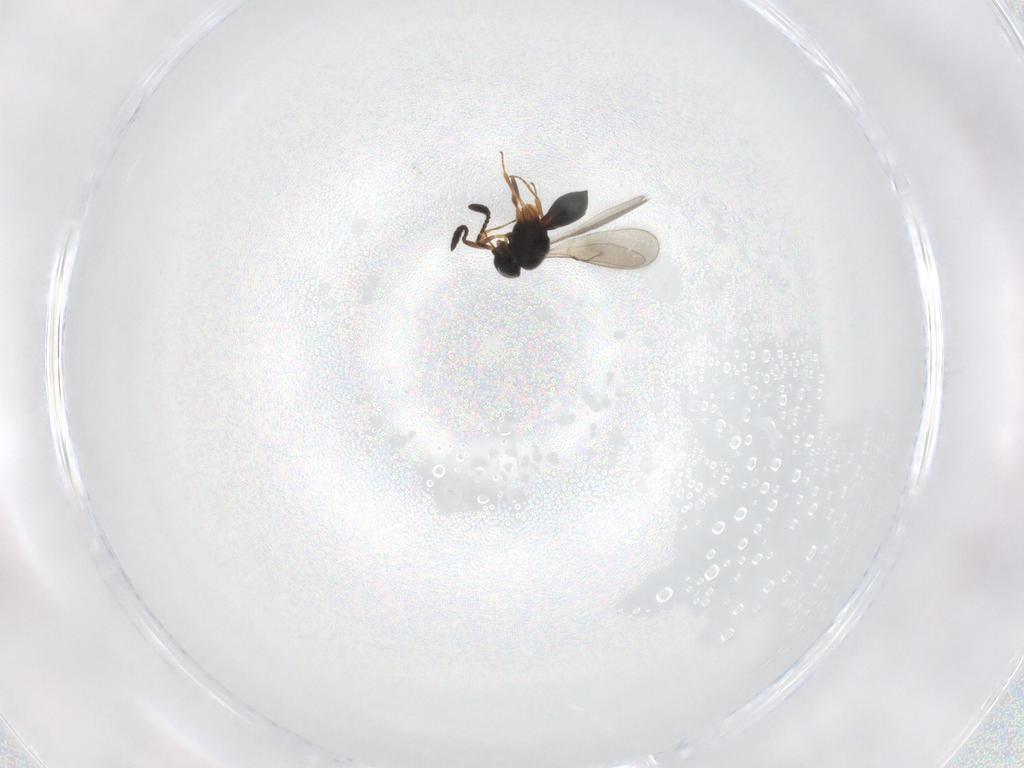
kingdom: Animalia
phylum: Arthropoda
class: Insecta
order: Hymenoptera
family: Scelionidae
